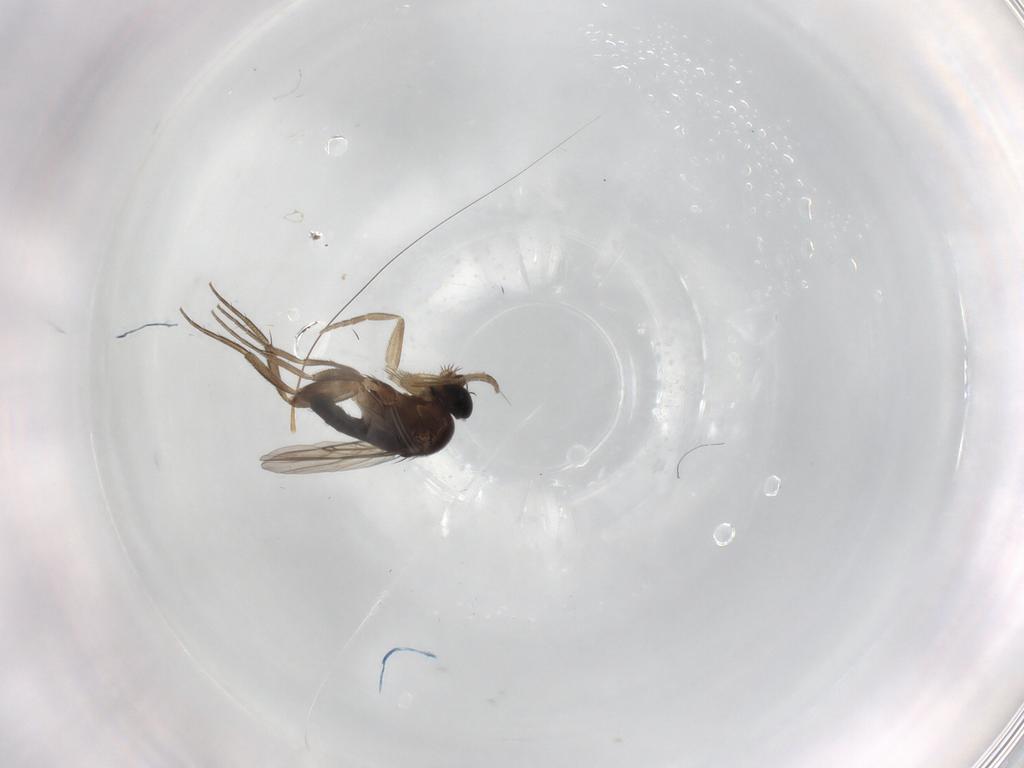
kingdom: Animalia
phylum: Arthropoda
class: Insecta
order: Diptera
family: Phoridae
